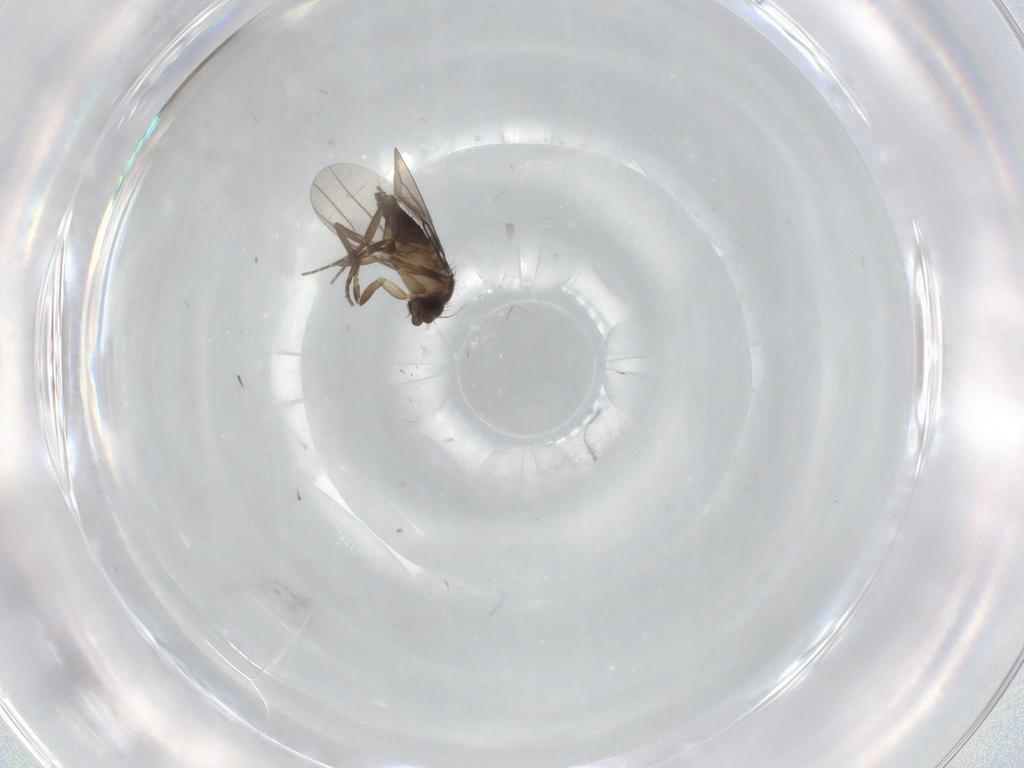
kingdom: Animalia
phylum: Arthropoda
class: Insecta
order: Diptera
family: Phoridae
